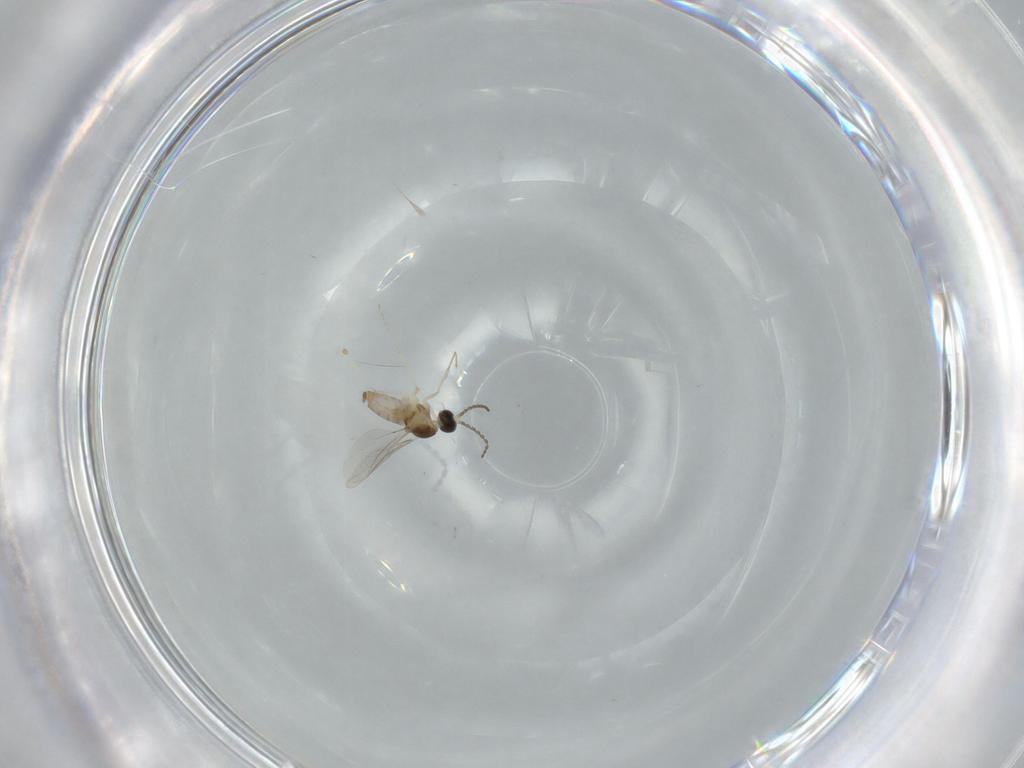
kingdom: Animalia
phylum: Arthropoda
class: Insecta
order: Diptera
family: Cecidomyiidae
